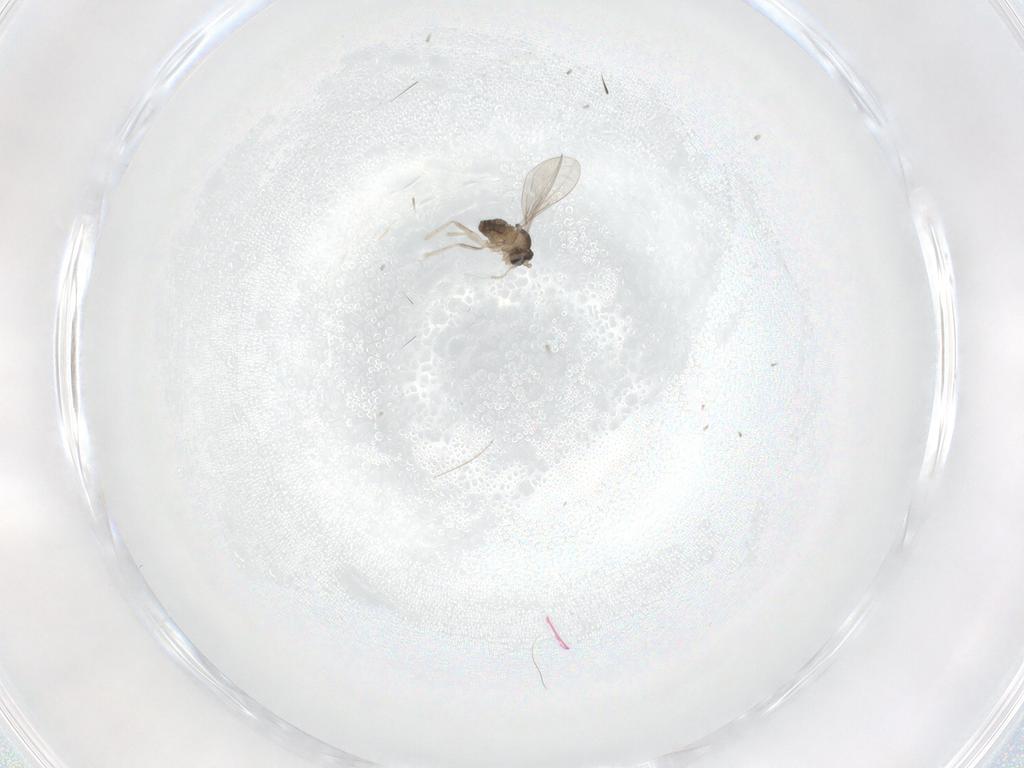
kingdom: Animalia
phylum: Arthropoda
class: Insecta
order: Diptera
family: Cecidomyiidae
